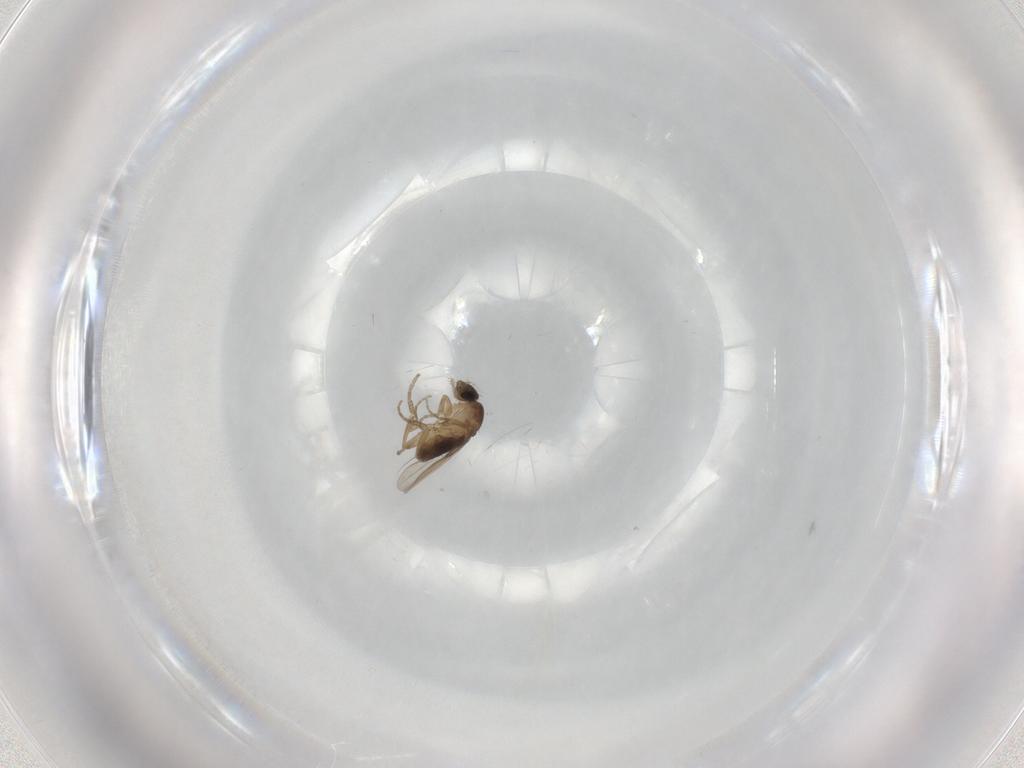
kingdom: Animalia
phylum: Arthropoda
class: Insecta
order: Diptera
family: Phoridae
